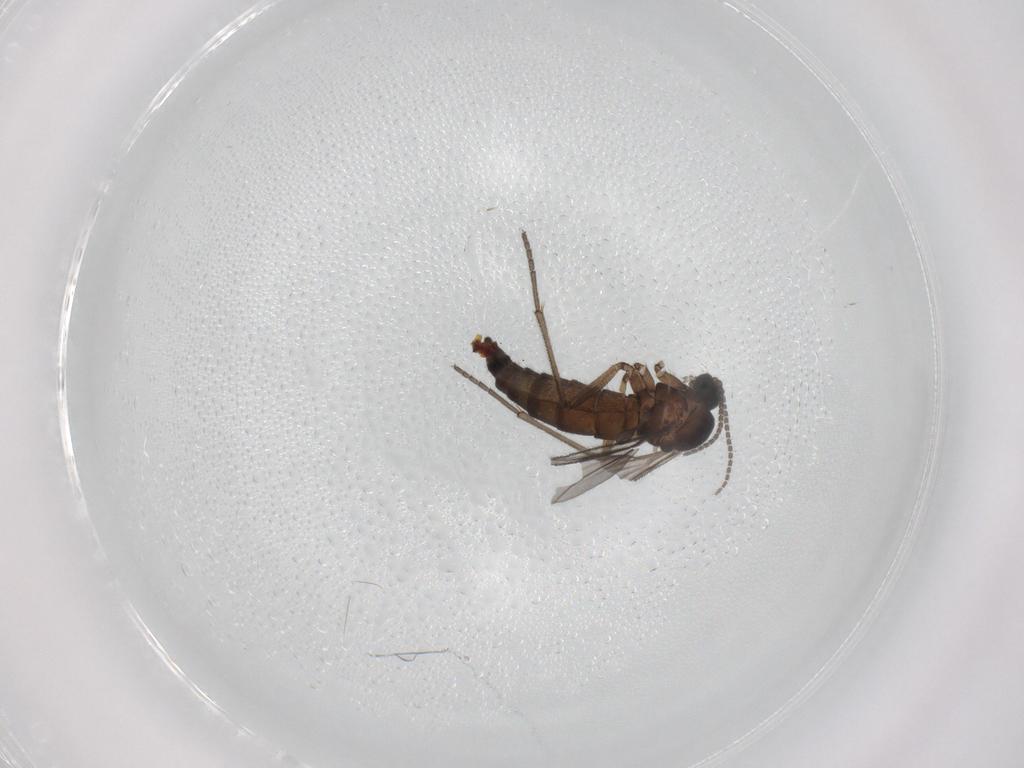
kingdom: Animalia
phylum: Arthropoda
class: Insecta
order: Diptera
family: Sciaridae
